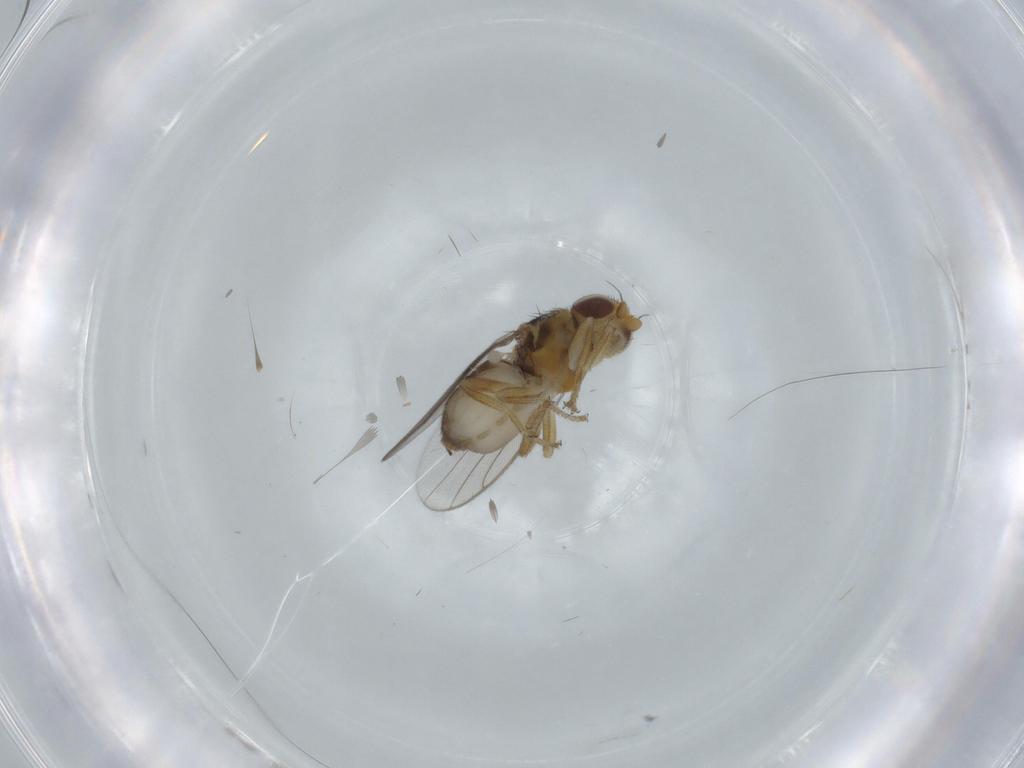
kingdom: Animalia
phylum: Arthropoda
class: Insecta
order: Diptera
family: Chloropidae
